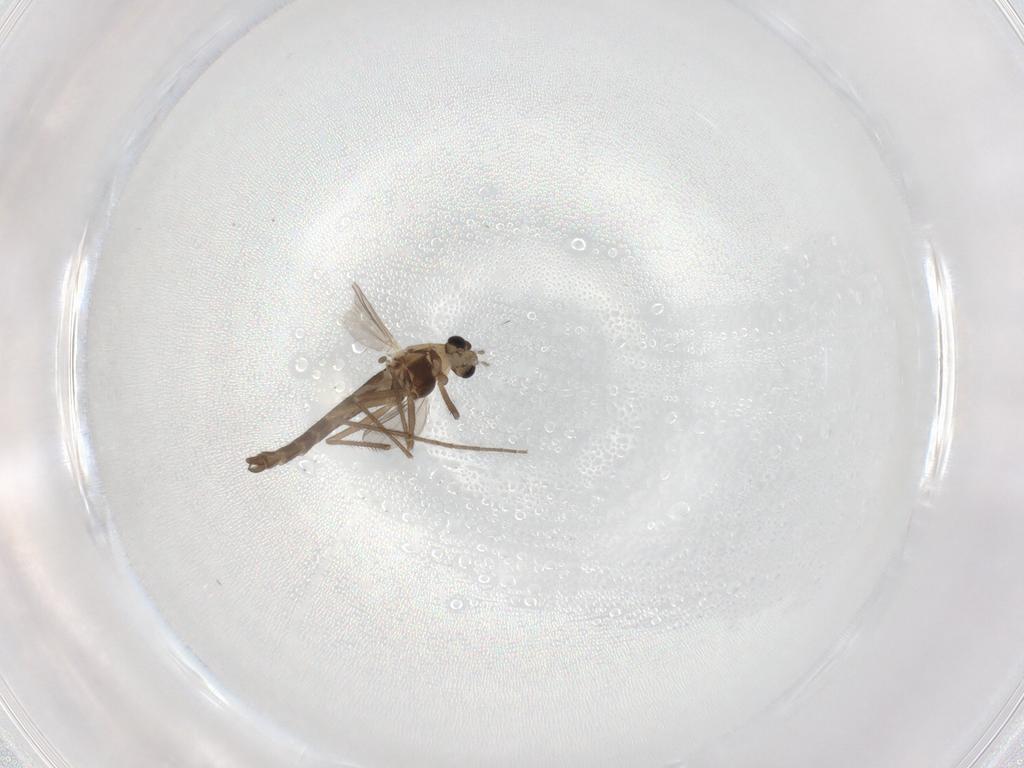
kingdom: Animalia
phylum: Arthropoda
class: Insecta
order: Diptera
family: Chironomidae
